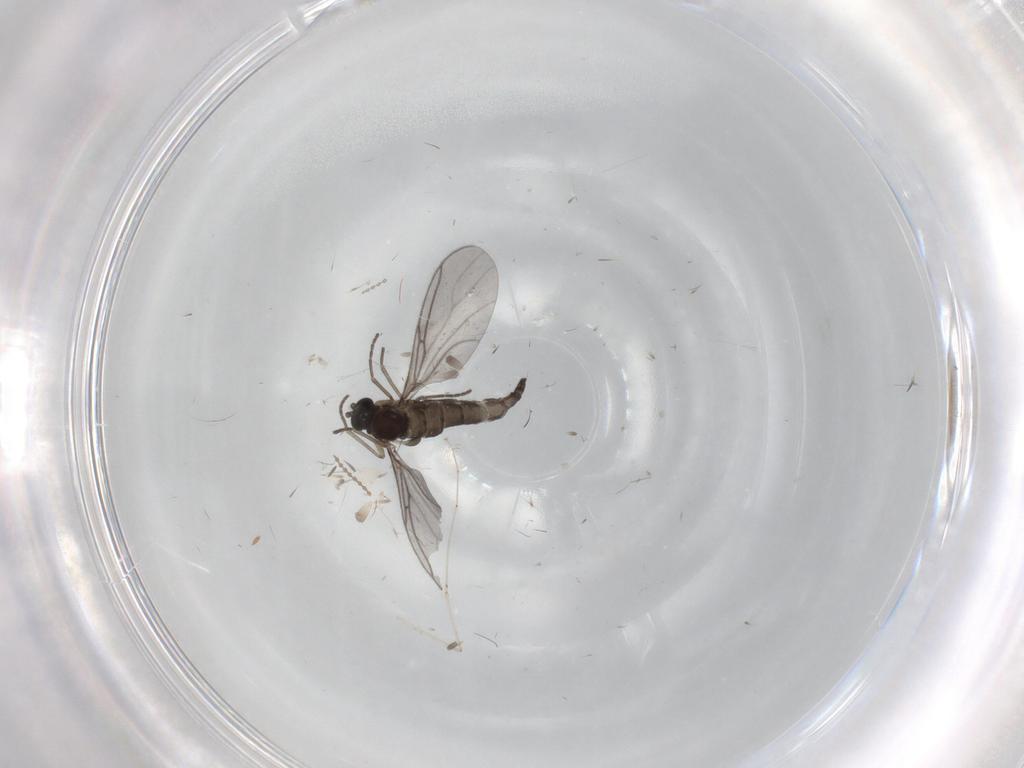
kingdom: Animalia
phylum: Arthropoda
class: Insecta
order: Diptera
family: Sciaridae
